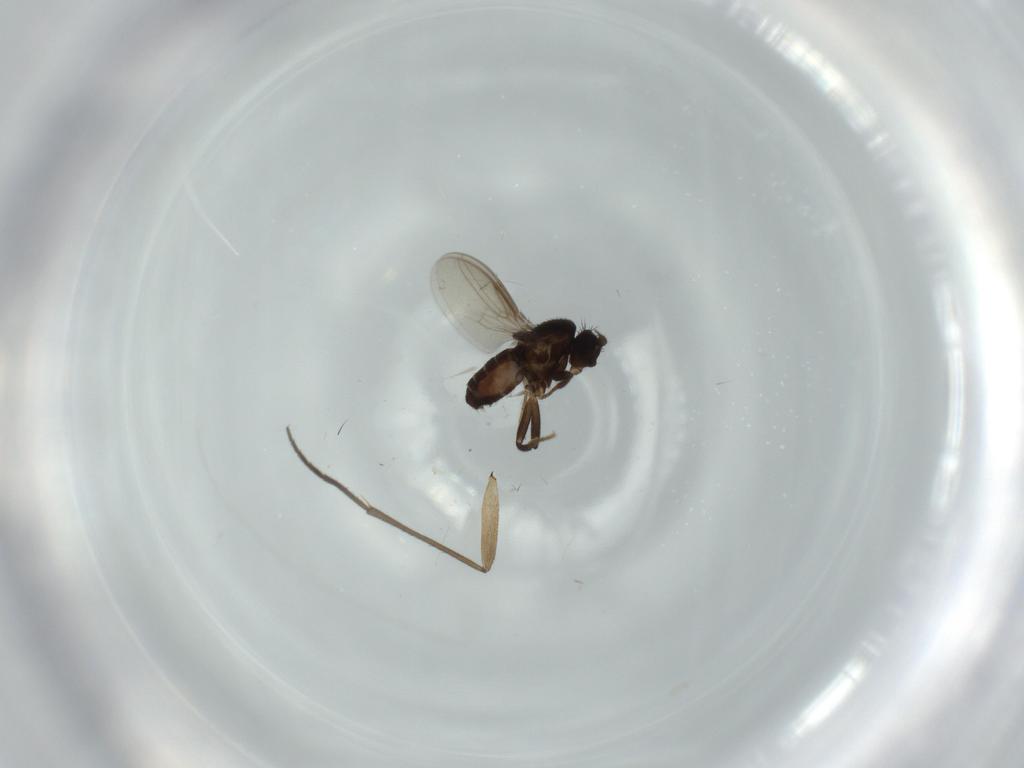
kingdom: Animalia
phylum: Arthropoda
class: Insecta
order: Diptera
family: Sphaeroceridae
